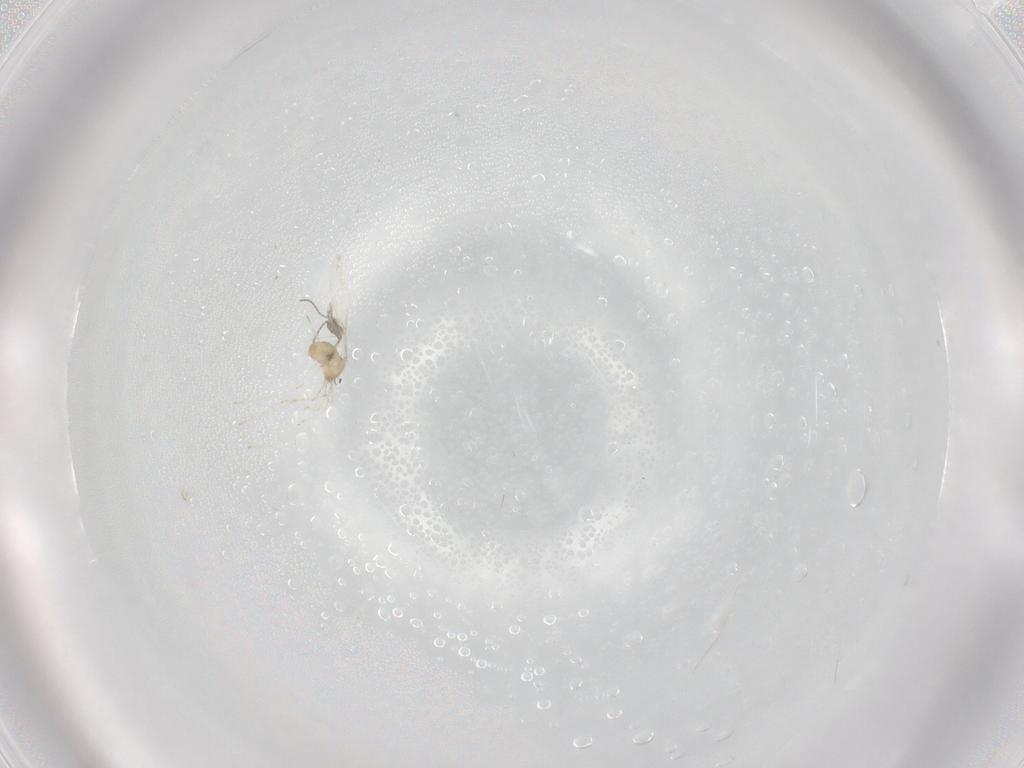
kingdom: Animalia
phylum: Arthropoda
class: Insecta
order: Diptera
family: Cecidomyiidae
